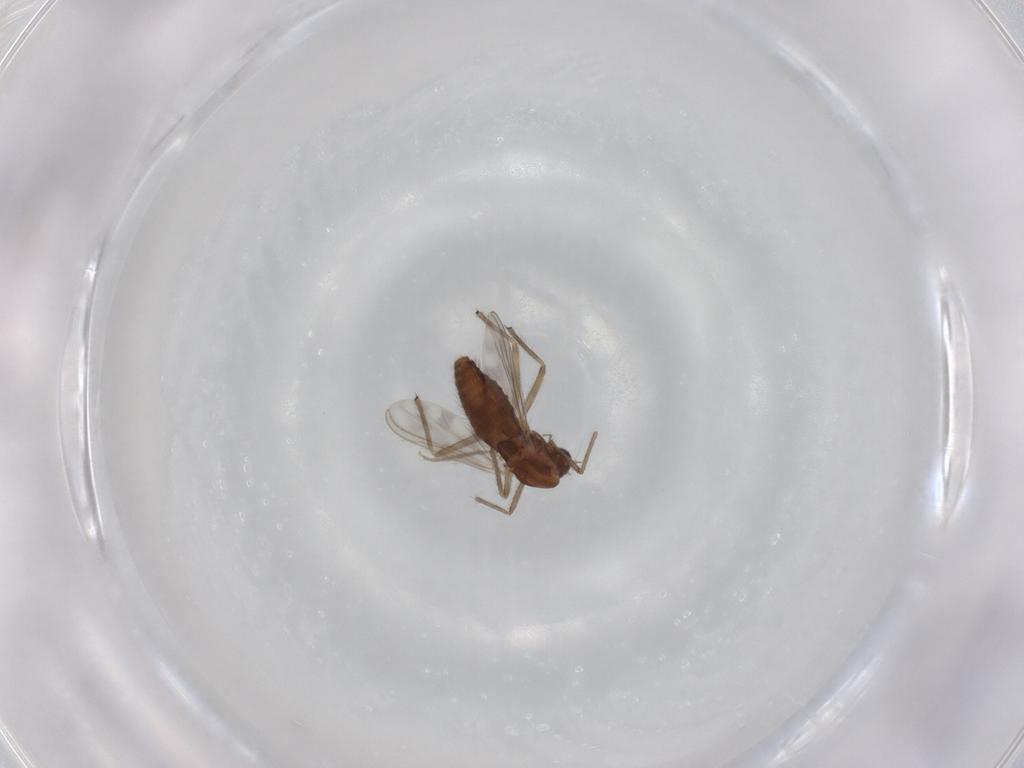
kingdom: Animalia
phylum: Arthropoda
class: Insecta
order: Diptera
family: Chironomidae
